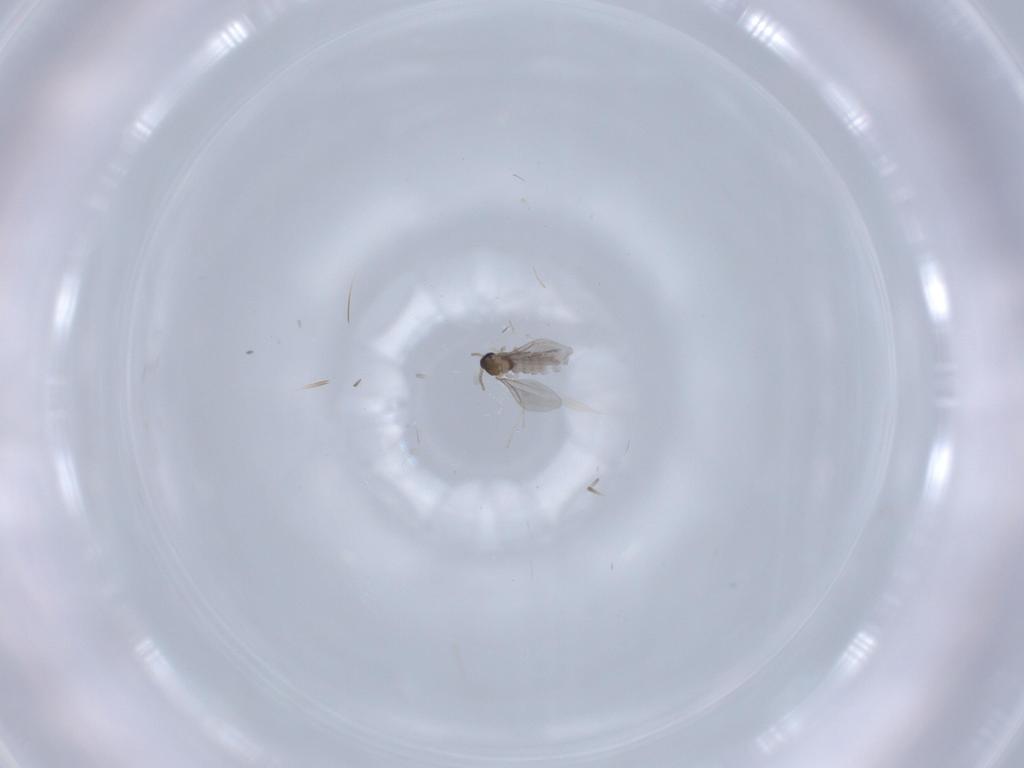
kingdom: Animalia
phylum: Arthropoda
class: Insecta
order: Diptera
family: Cecidomyiidae
